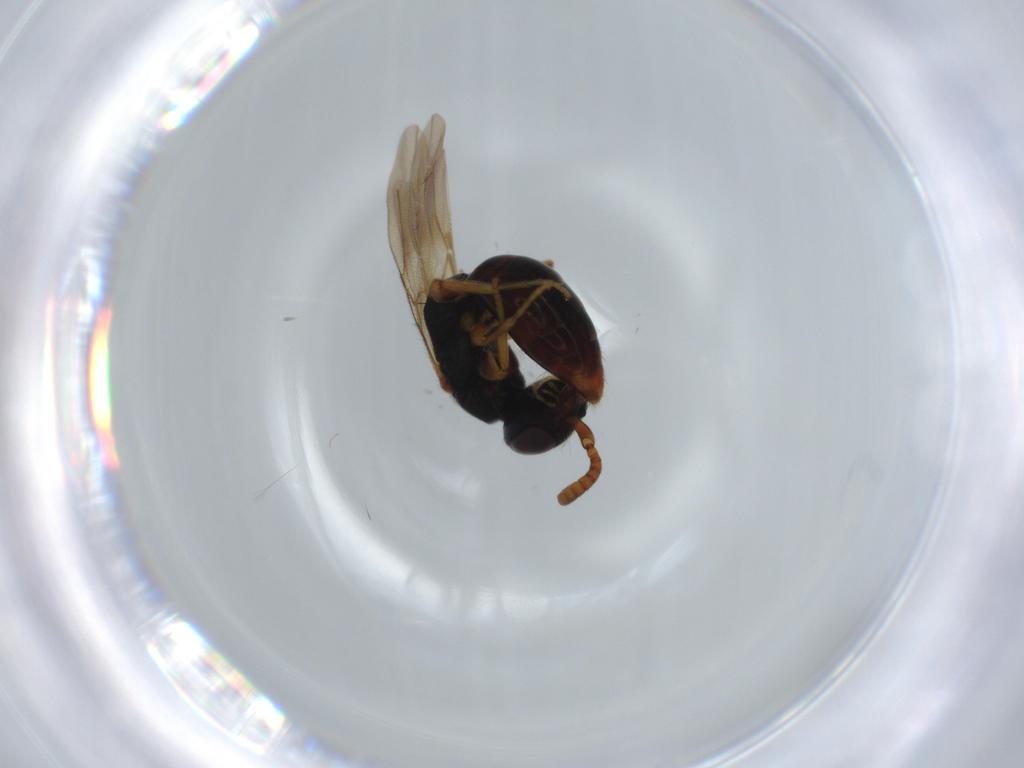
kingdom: Animalia
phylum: Arthropoda
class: Insecta
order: Hymenoptera
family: Bethylidae
